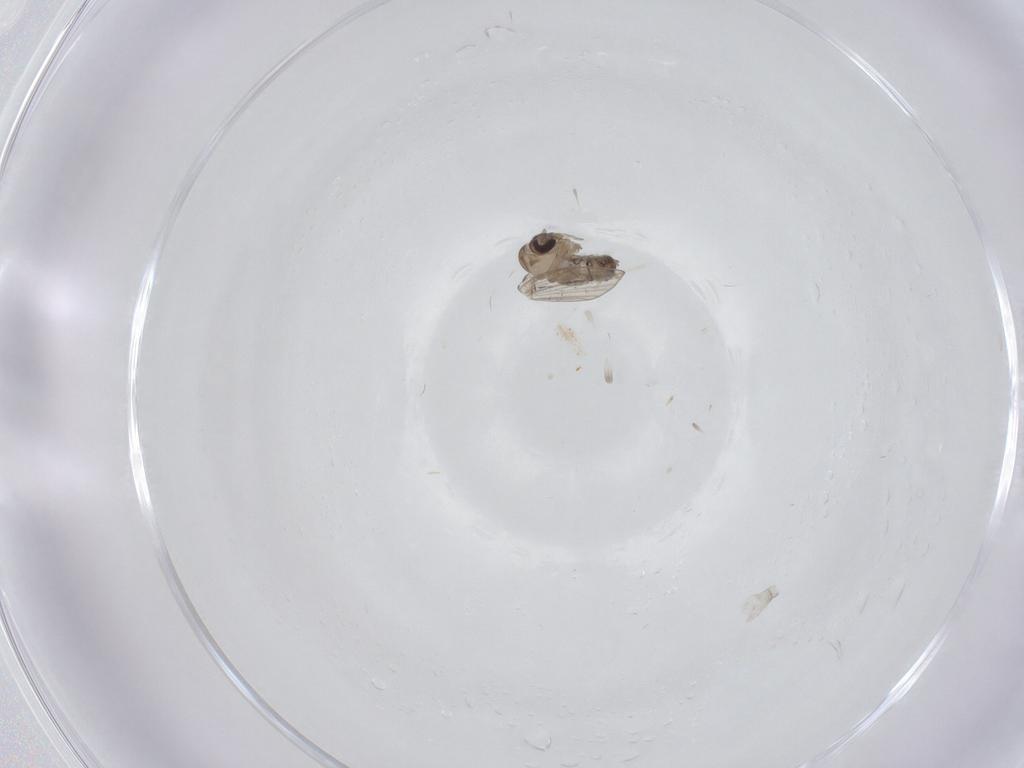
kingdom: Animalia
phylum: Arthropoda
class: Insecta
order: Diptera
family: Psychodidae
